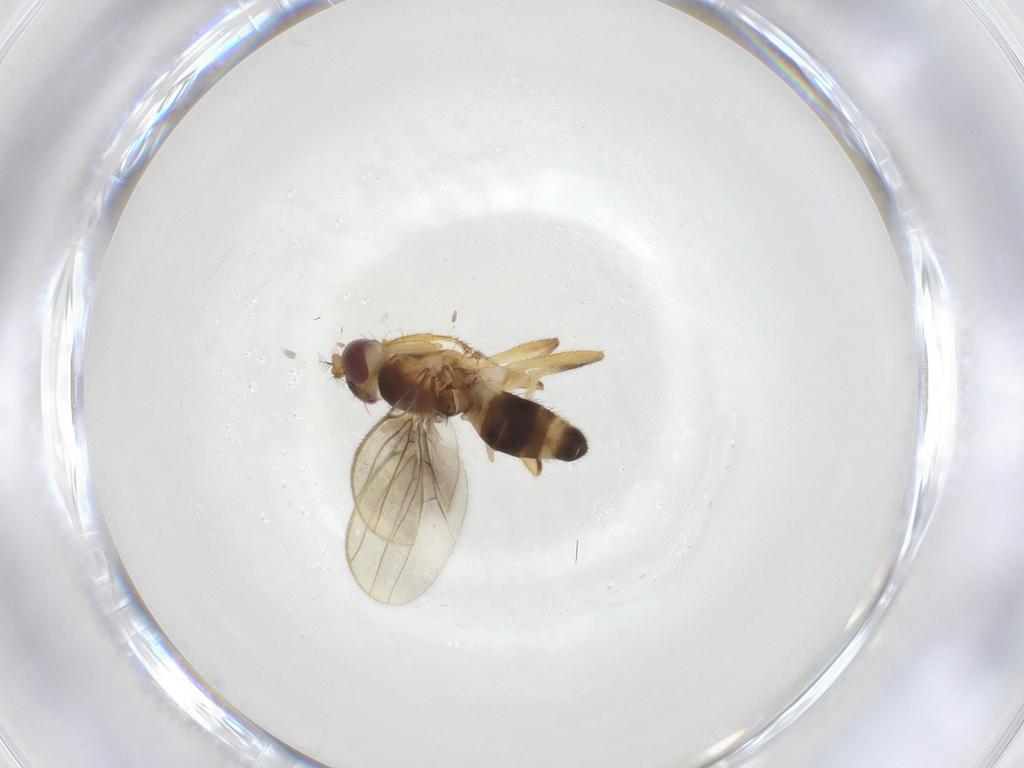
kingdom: Animalia
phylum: Arthropoda
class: Insecta
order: Diptera
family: Periscelididae
